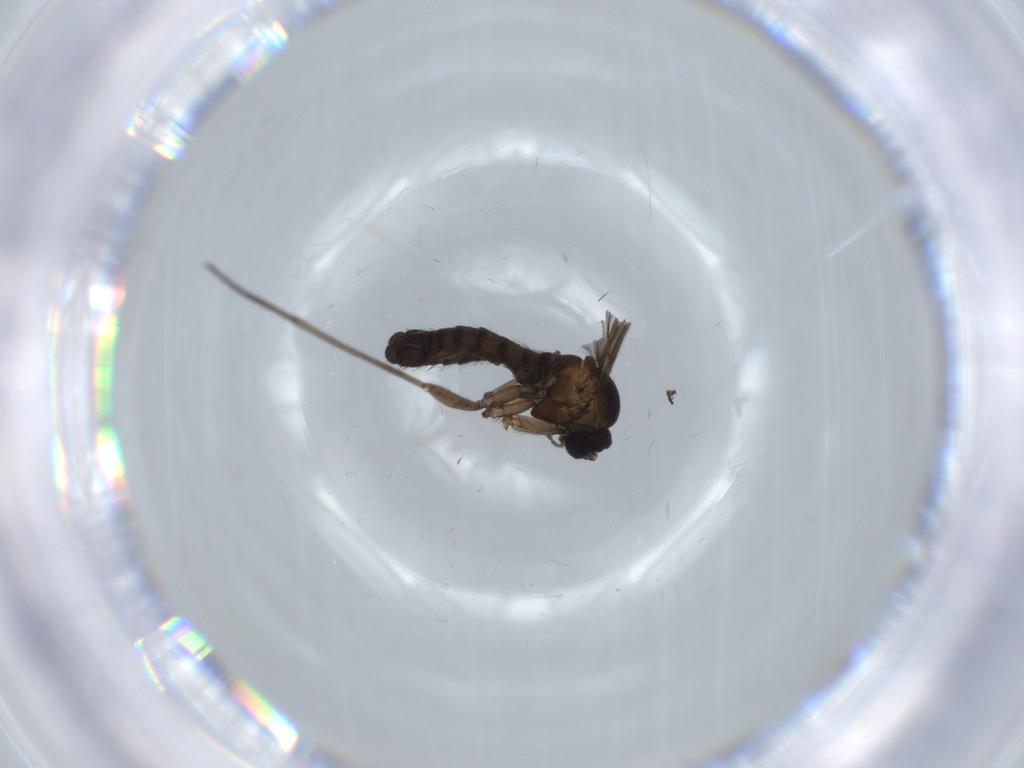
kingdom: Animalia
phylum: Arthropoda
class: Insecta
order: Diptera
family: Sciaridae
